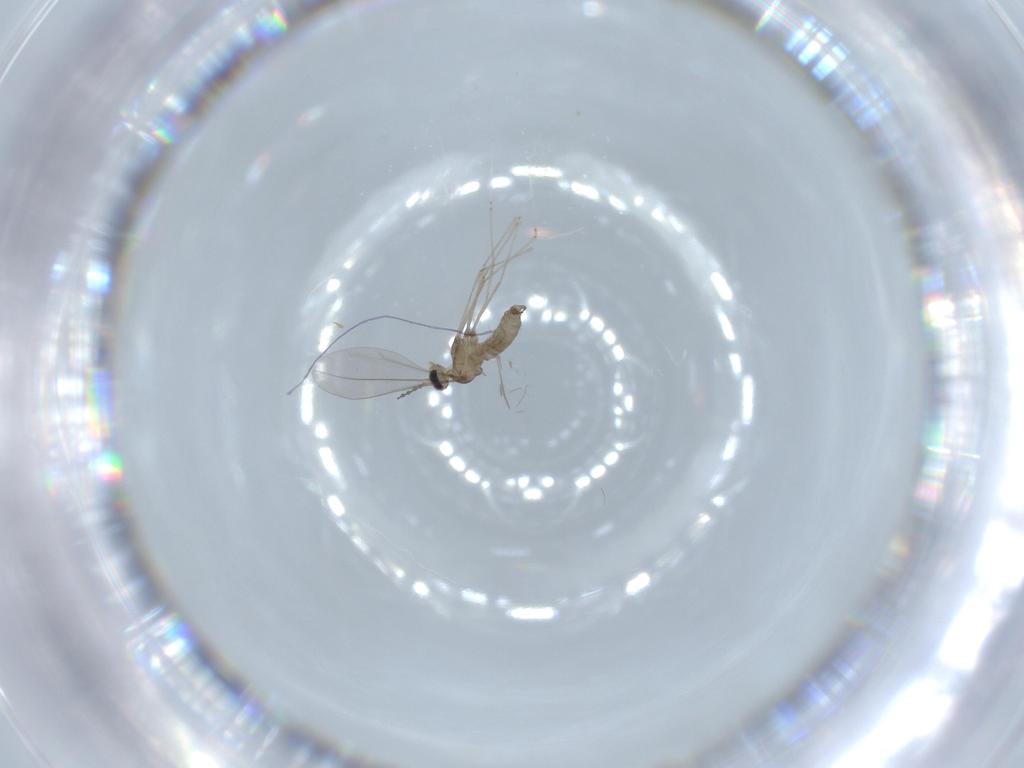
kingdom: Animalia
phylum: Arthropoda
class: Insecta
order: Diptera
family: Cecidomyiidae
